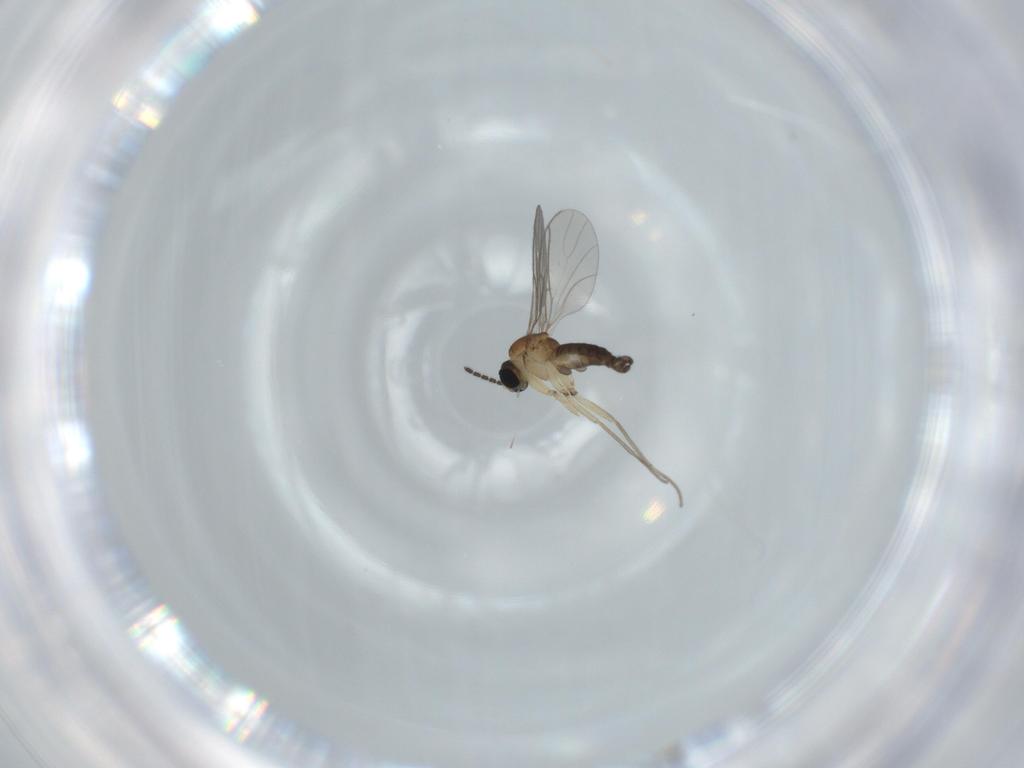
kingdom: Animalia
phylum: Arthropoda
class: Insecta
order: Diptera
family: Sciaridae
